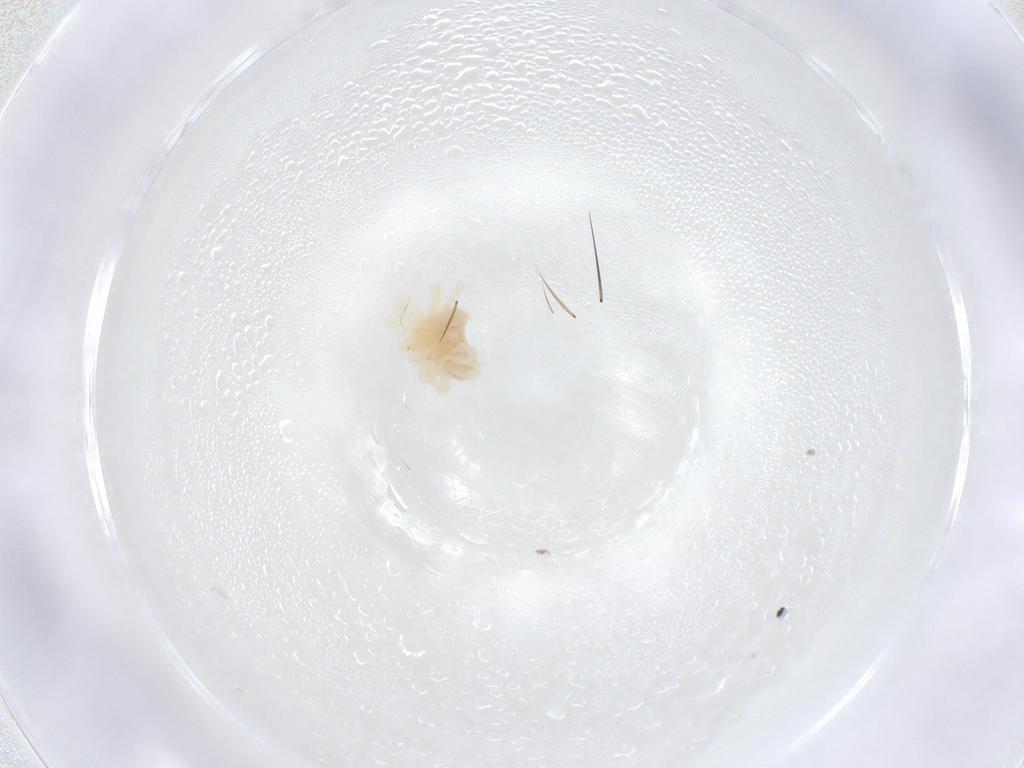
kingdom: Animalia
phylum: Arthropoda
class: Arachnida
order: Trombidiformes
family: Anystidae
